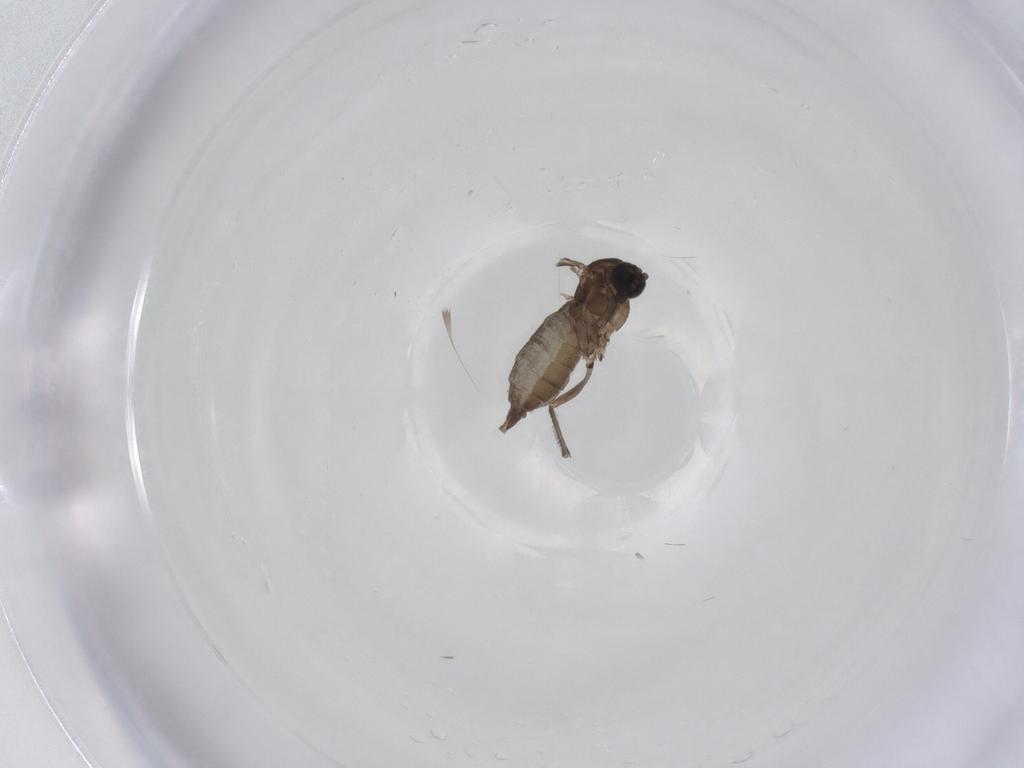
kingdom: Animalia
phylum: Arthropoda
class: Insecta
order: Diptera
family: Sciaridae
